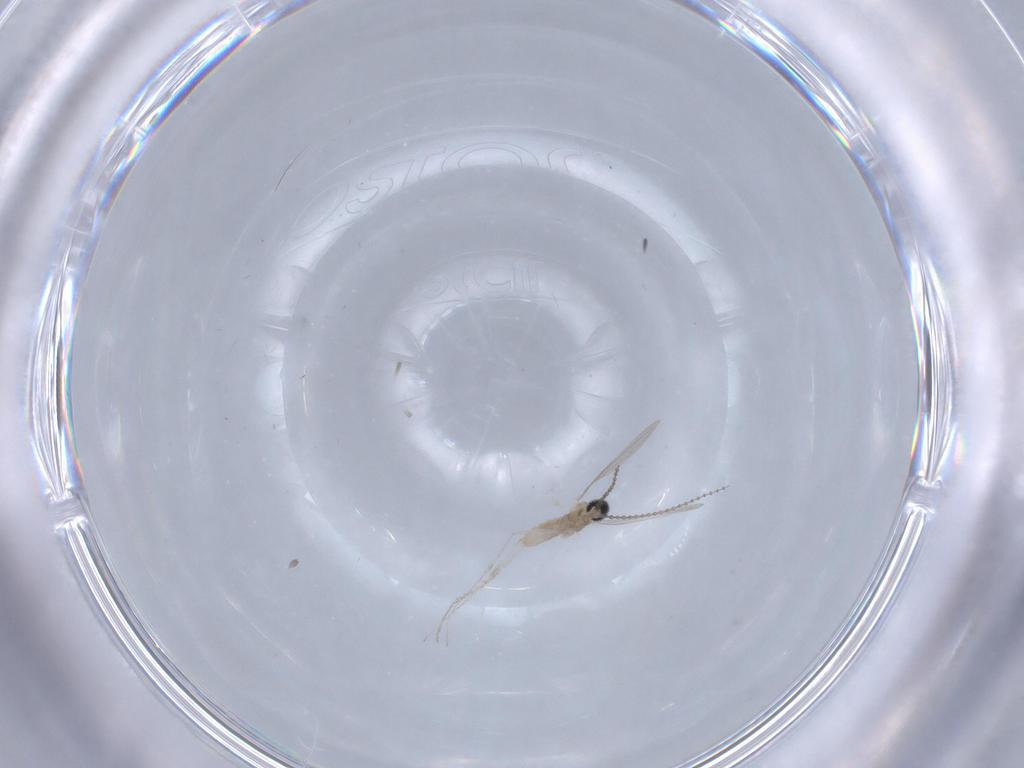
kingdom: Animalia
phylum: Arthropoda
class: Insecta
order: Diptera
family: Cecidomyiidae
